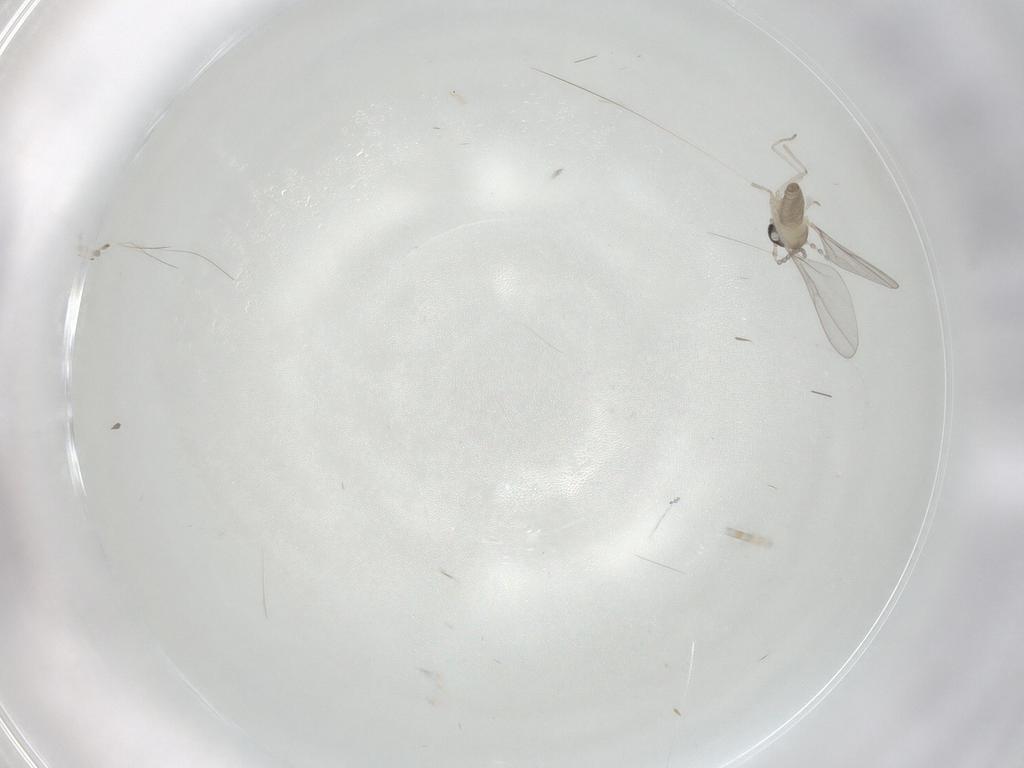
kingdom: Animalia
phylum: Arthropoda
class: Insecta
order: Diptera
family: Cecidomyiidae
